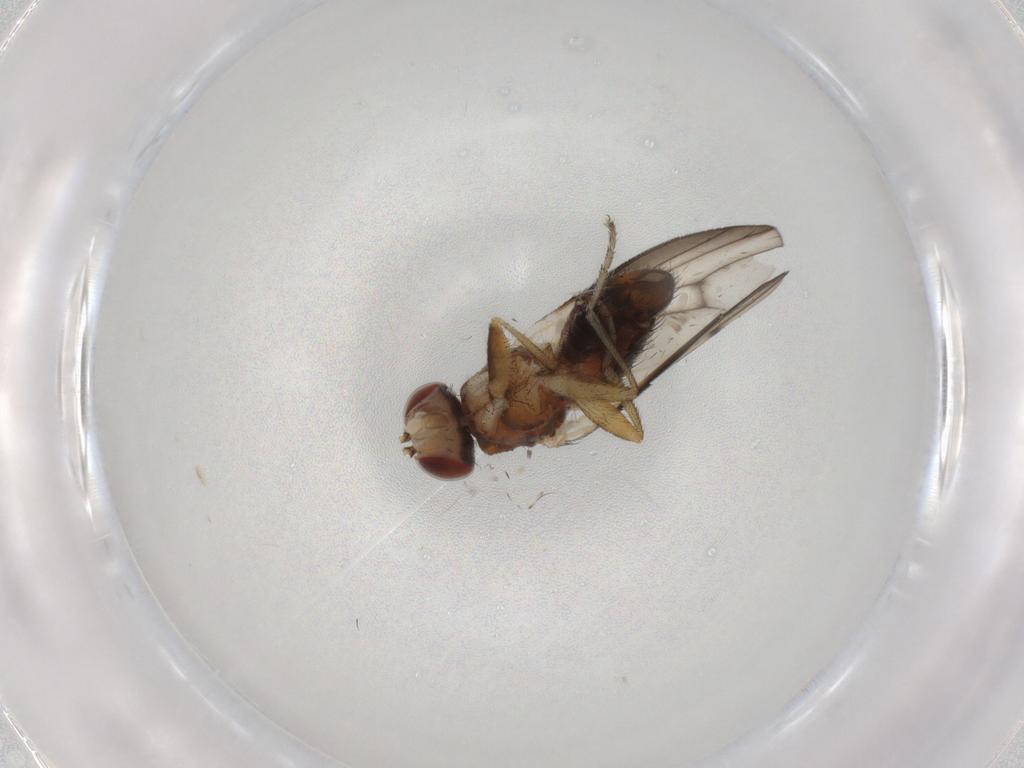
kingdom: Animalia
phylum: Arthropoda
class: Insecta
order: Diptera
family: Heleomyzidae
